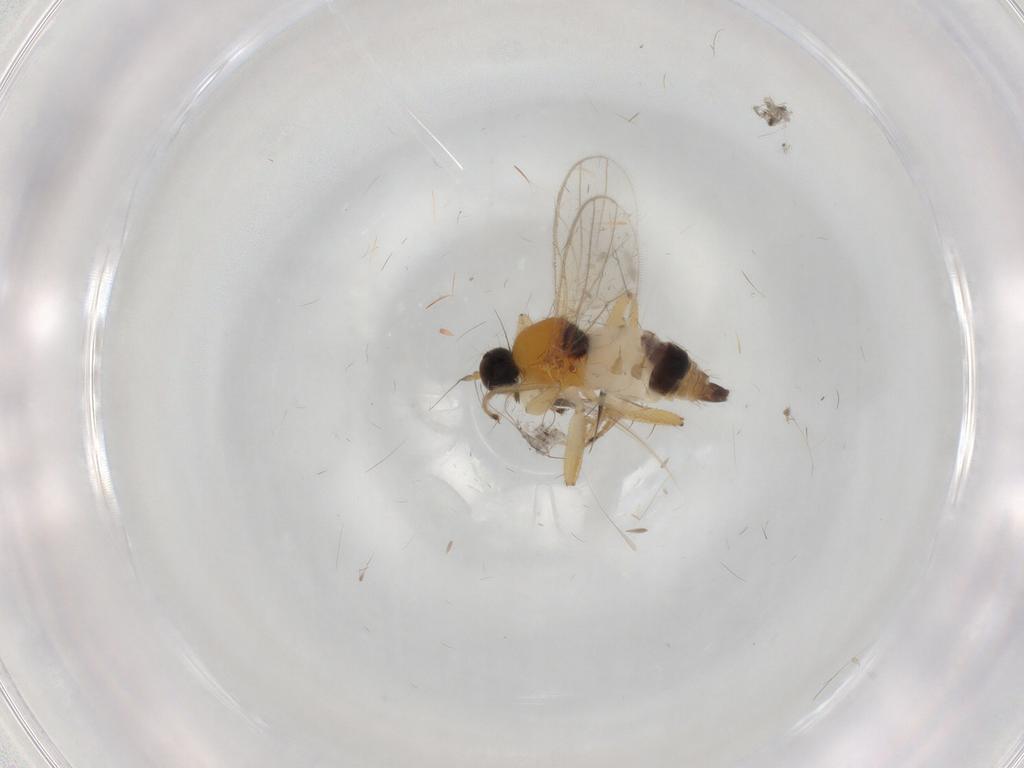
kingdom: Animalia
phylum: Arthropoda
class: Insecta
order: Diptera
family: Hybotidae
